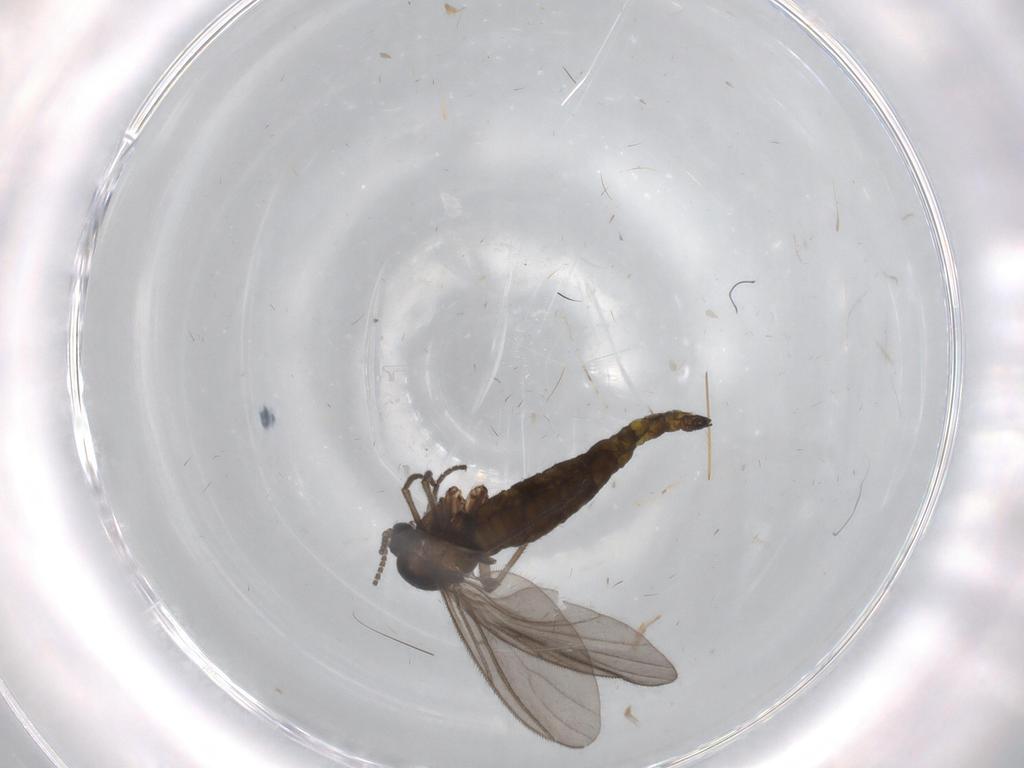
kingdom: Animalia
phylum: Arthropoda
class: Insecta
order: Diptera
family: Sciaridae
